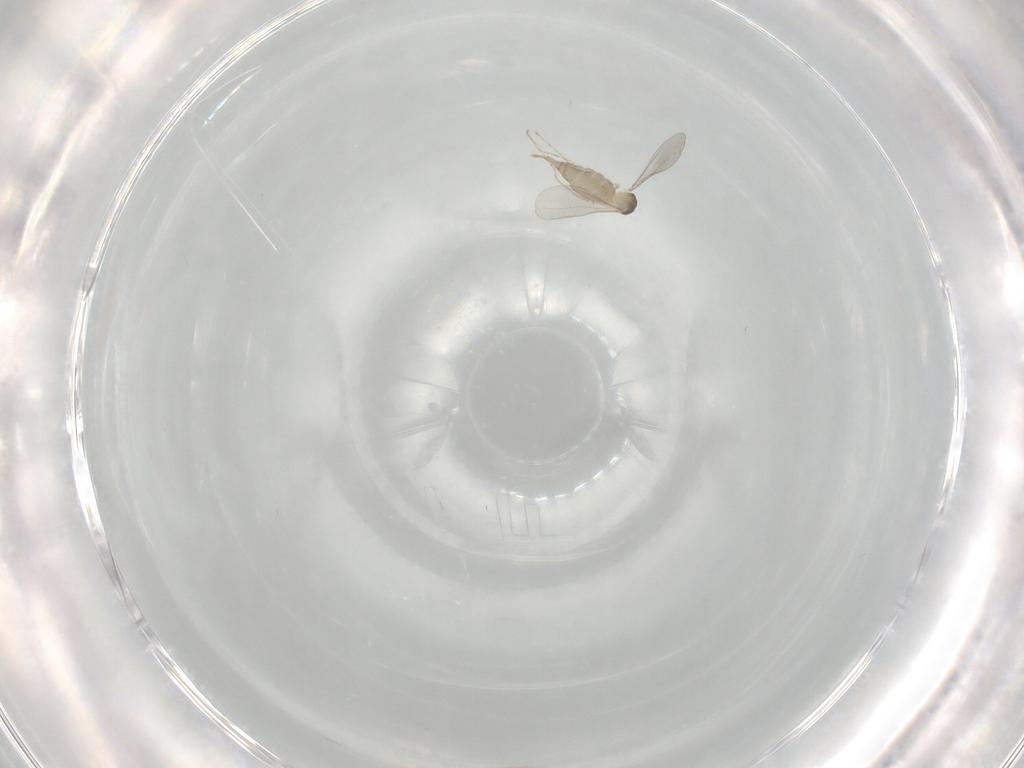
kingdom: Animalia
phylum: Arthropoda
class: Insecta
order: Diptera
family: Cecidomyiidae
